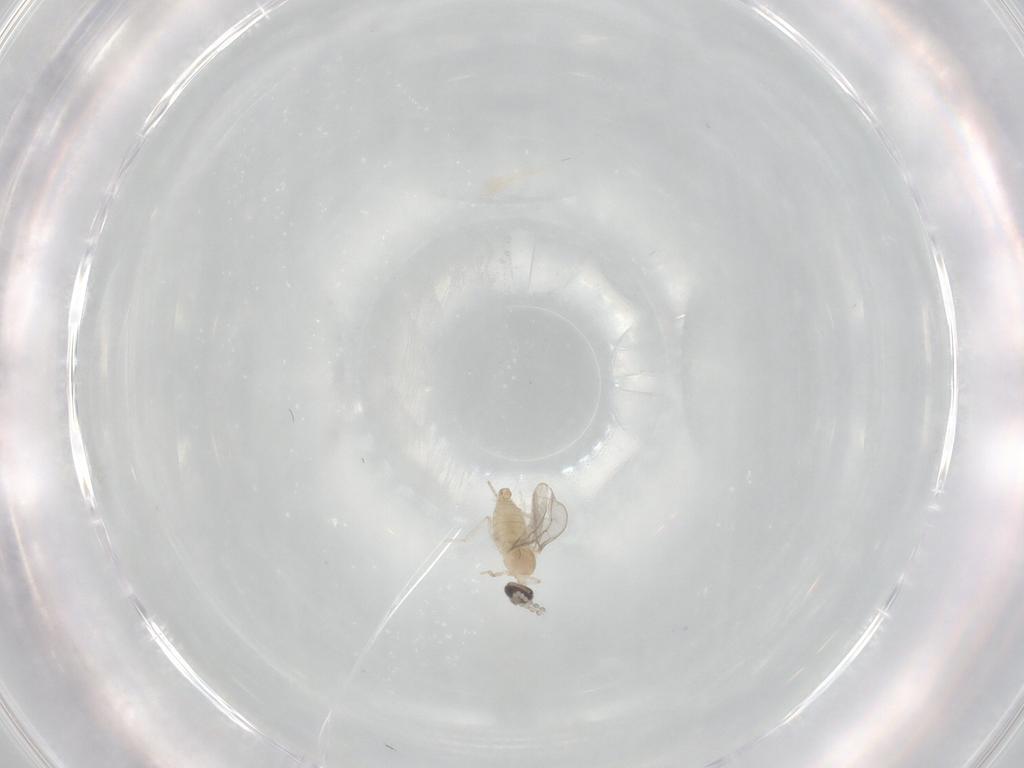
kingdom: Animalia
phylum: Arthropoda
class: Insecta
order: Diptera
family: Cecidomyiidae
